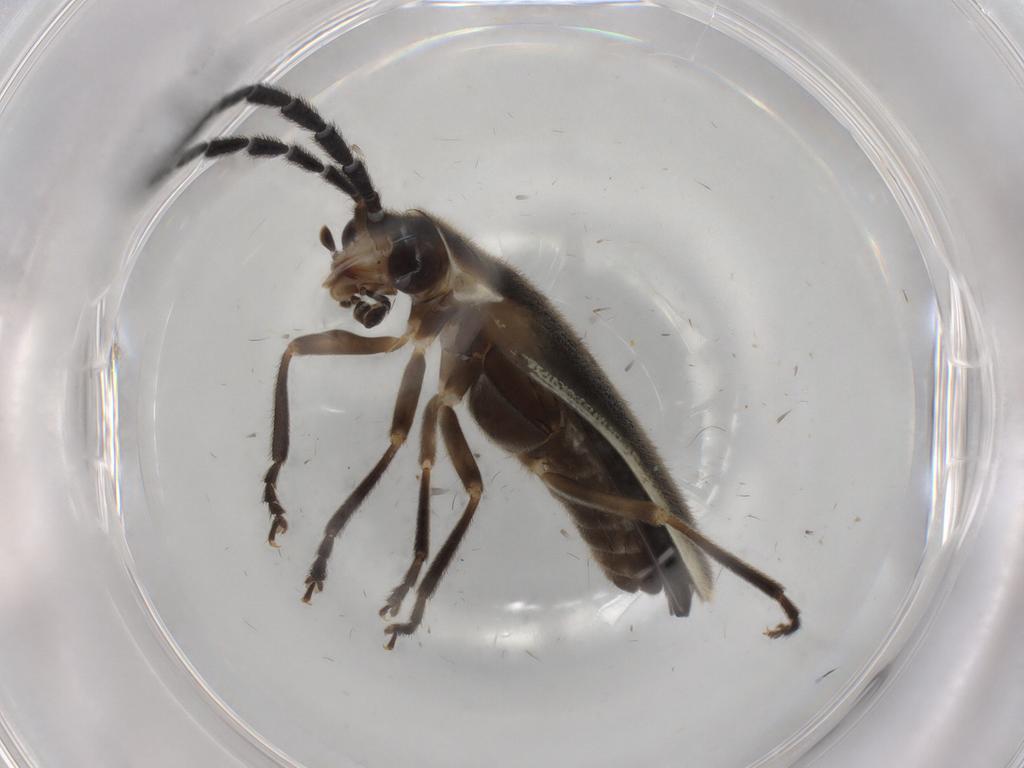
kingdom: Animalia
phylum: Arthropoda
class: Insecta
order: Coleoptera
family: Cantharidae
